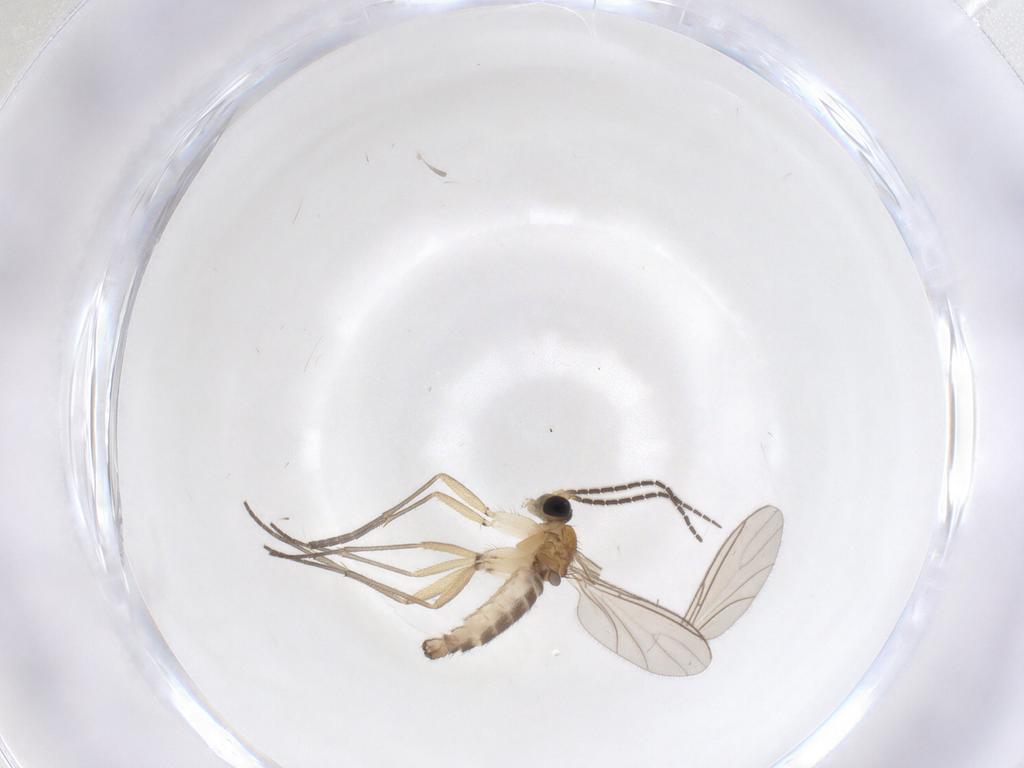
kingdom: Animalia
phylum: Arthropoda
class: Insecta
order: Diptera
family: Sciaridae
